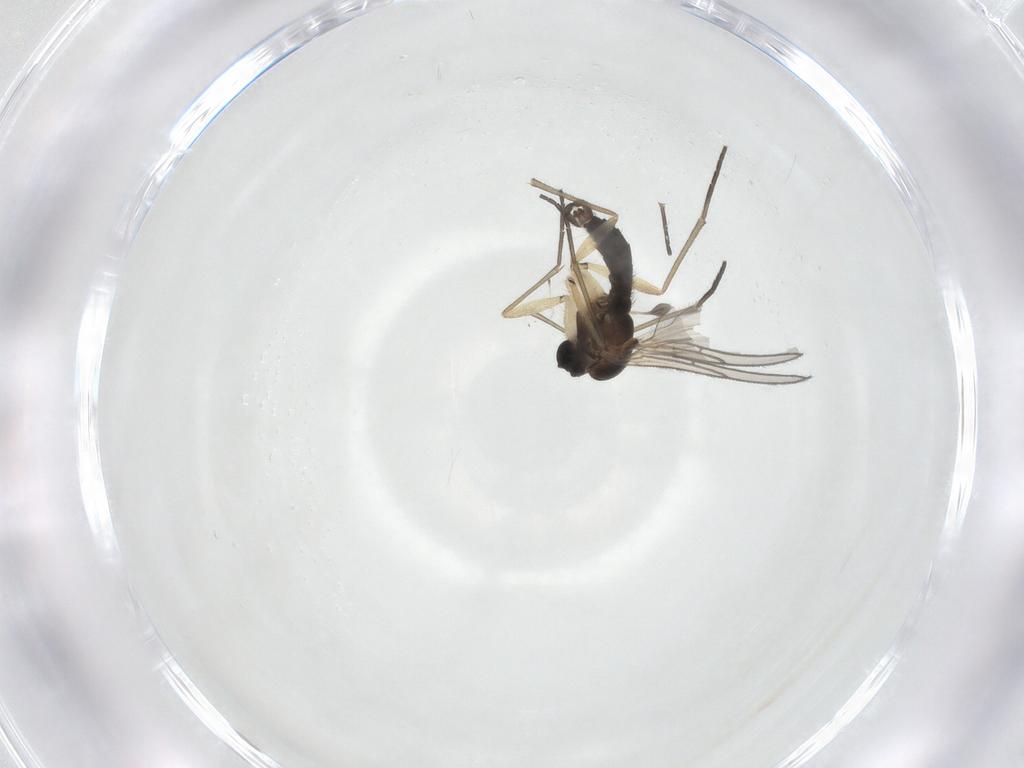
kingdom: Animalia
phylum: Arthropoda
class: Insecta
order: Diptera
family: Sciaridae
